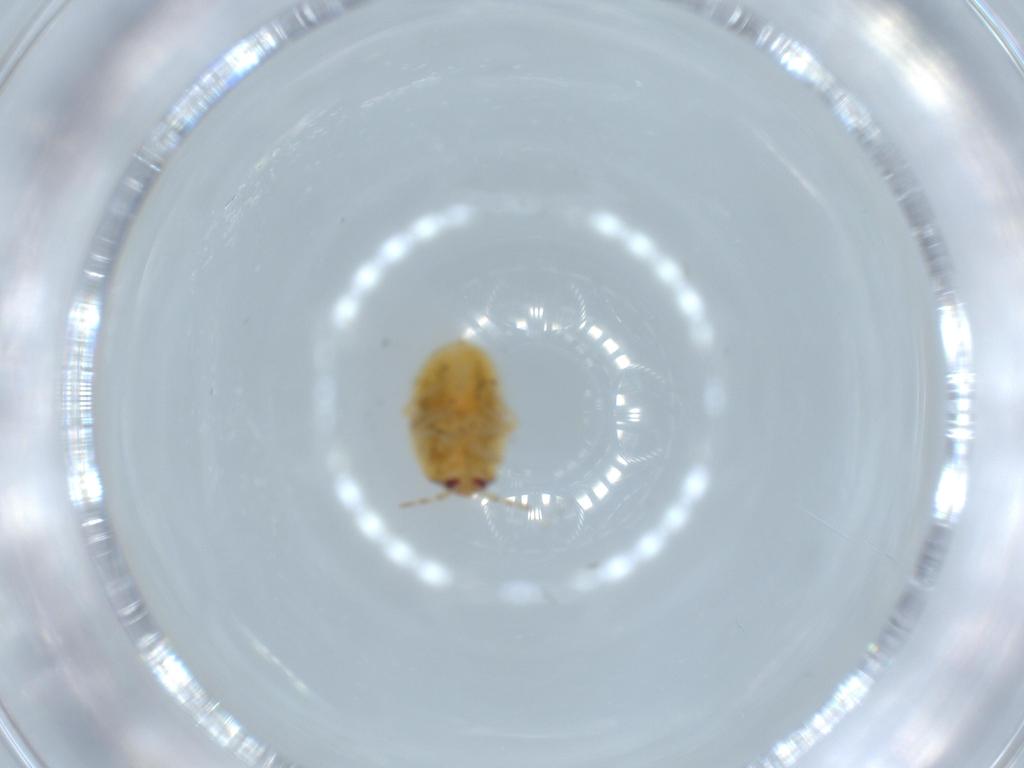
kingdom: Animalia
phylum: Arthropoda
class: Insecta
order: Hemiptera
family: Anthocoridae
